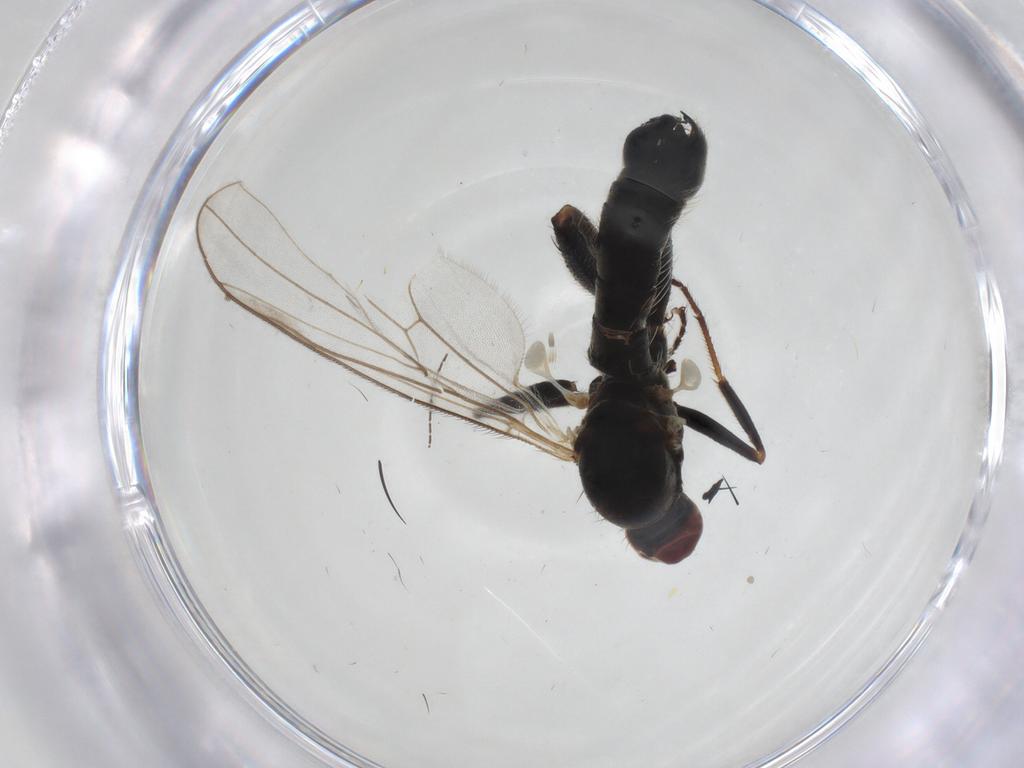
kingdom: Animalia
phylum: Arthropoda
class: Insecta
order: Diptera
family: Hybotidae
